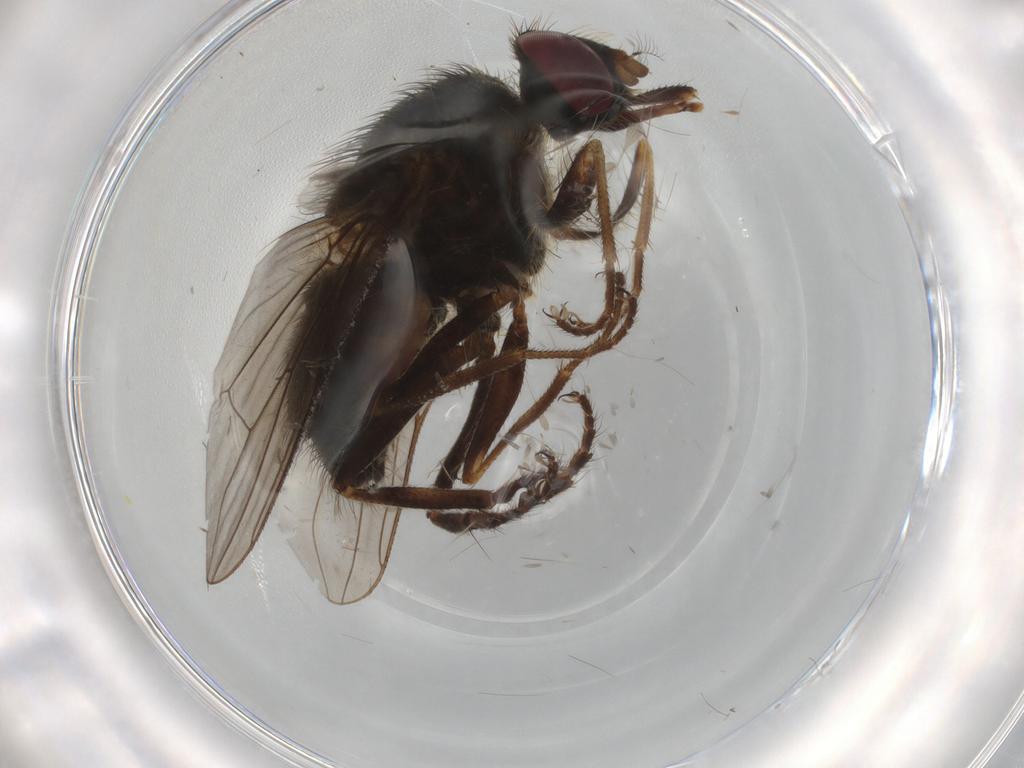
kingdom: Animalia
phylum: Arthropoda
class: Insecta
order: Diptera
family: Ceratopogonidae
